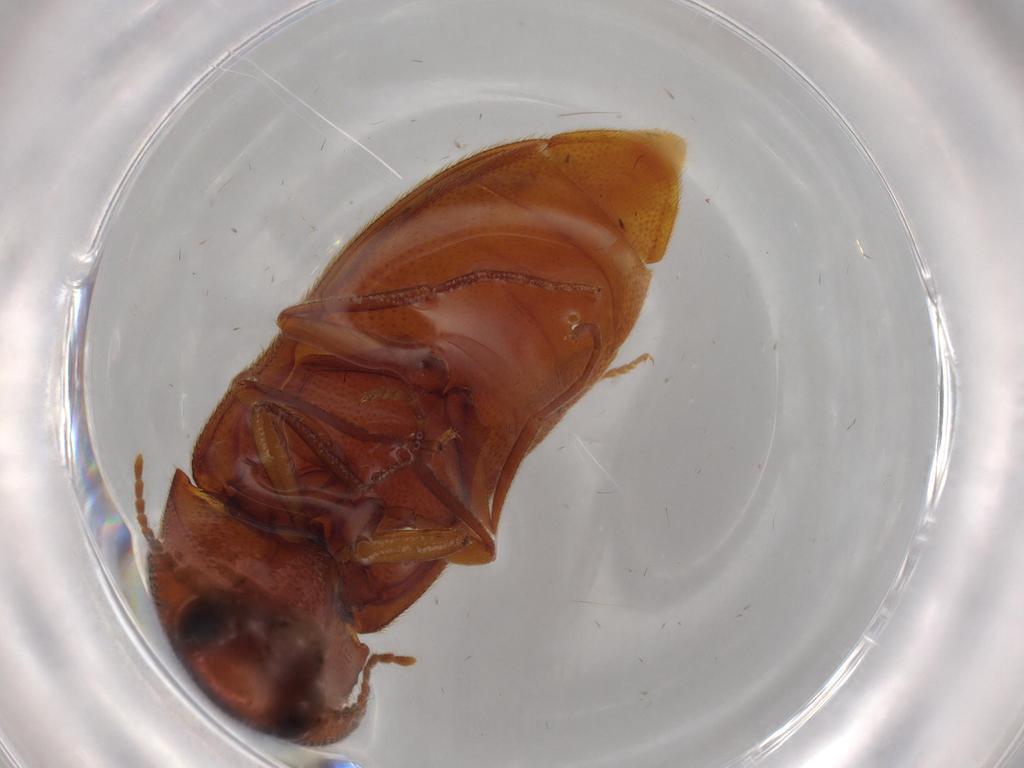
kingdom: Animalia
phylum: Arthropoda
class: Insecta
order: Coleoptera
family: Elateridae
